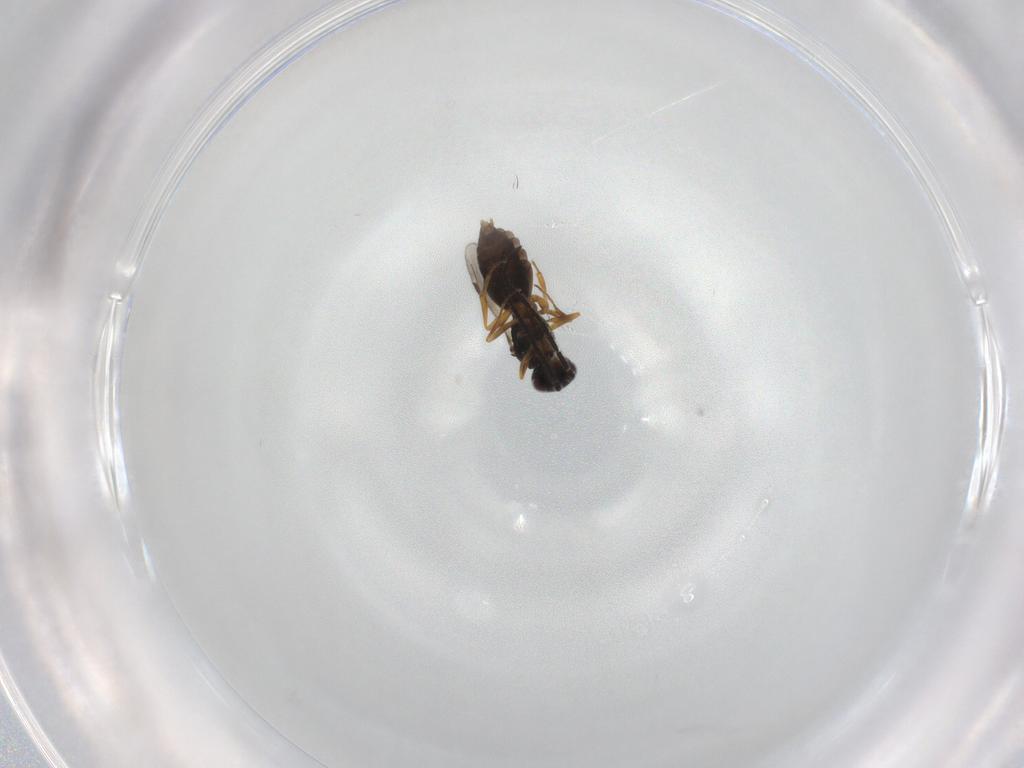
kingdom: Animalia
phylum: Arthropoda
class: Insecta
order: Hymenoptera
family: Megaspilidae
